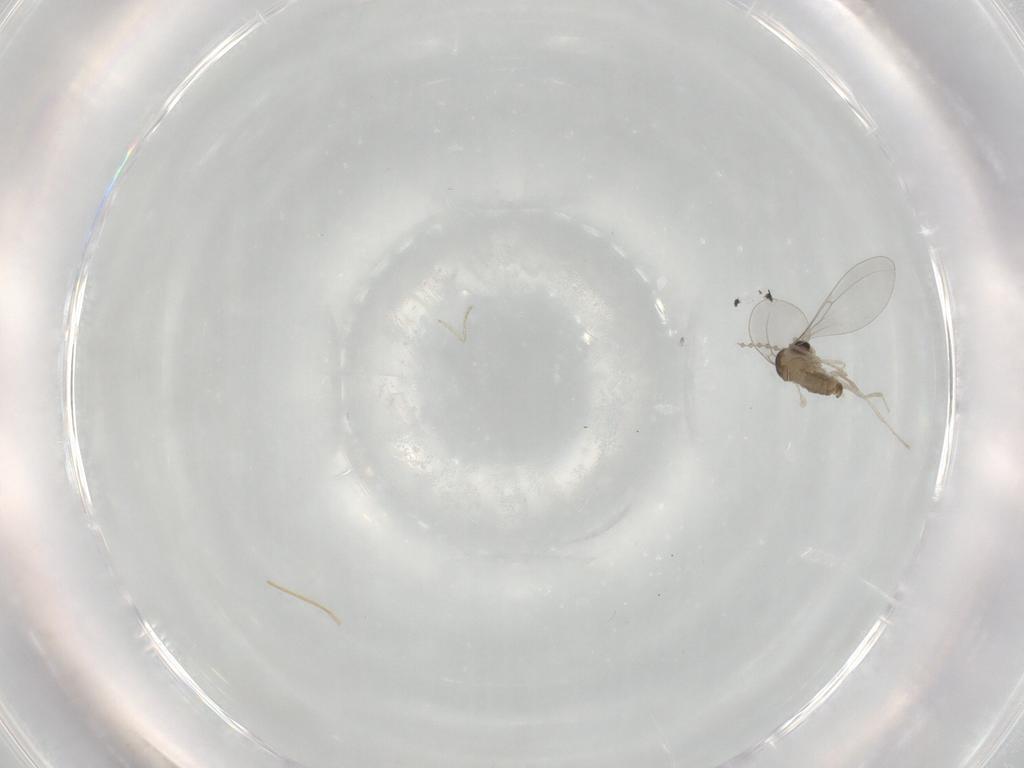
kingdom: Animalia
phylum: Arthropoda
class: Insecta
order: Diptera
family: Cecidomyiidae
